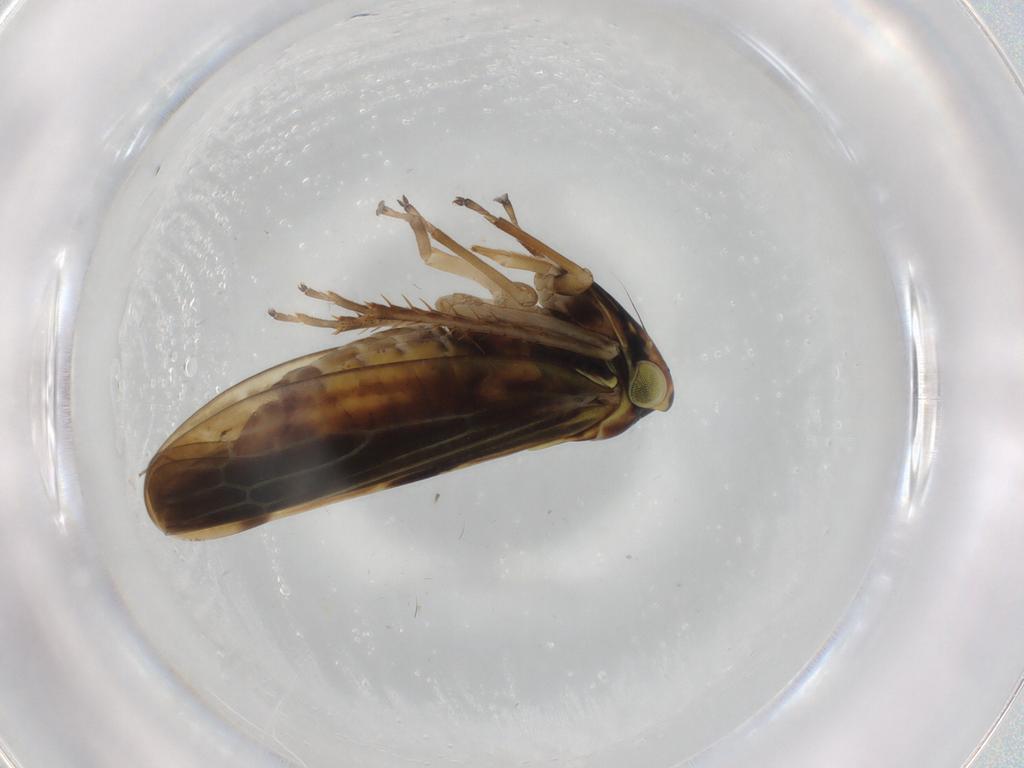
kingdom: Animalia
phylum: Arthropoda
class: Insecta
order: Hemiptera
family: Cicadellidae
